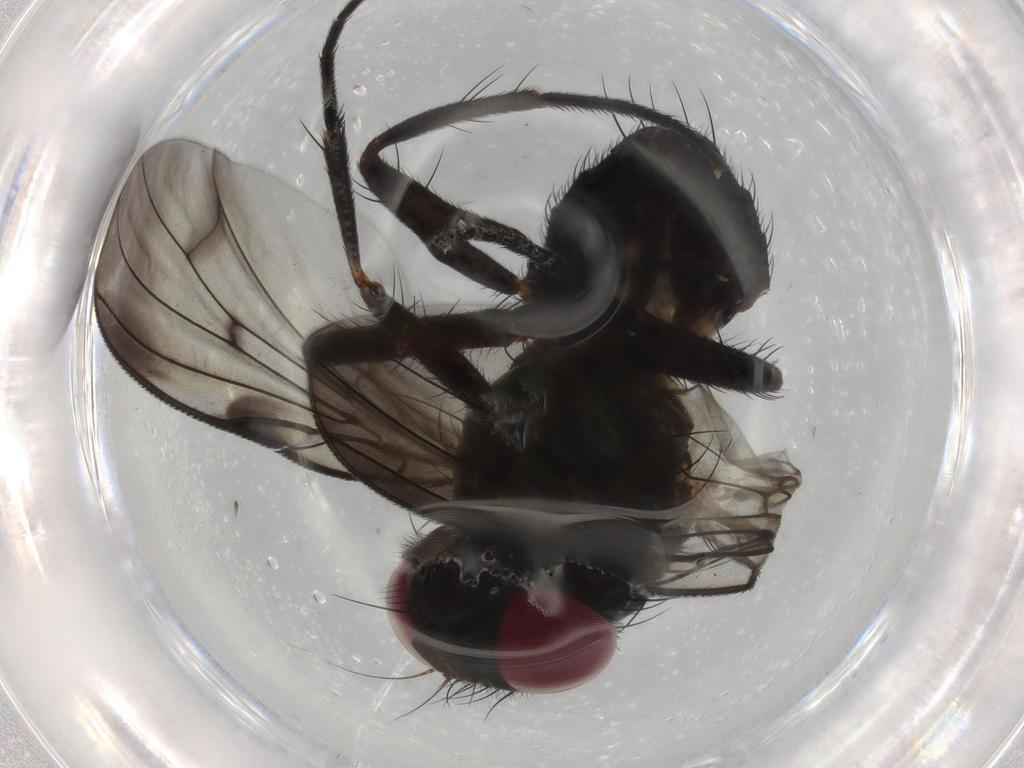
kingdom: Animalia
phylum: Arthropoda
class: Insecta
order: Diptera
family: Fannia
